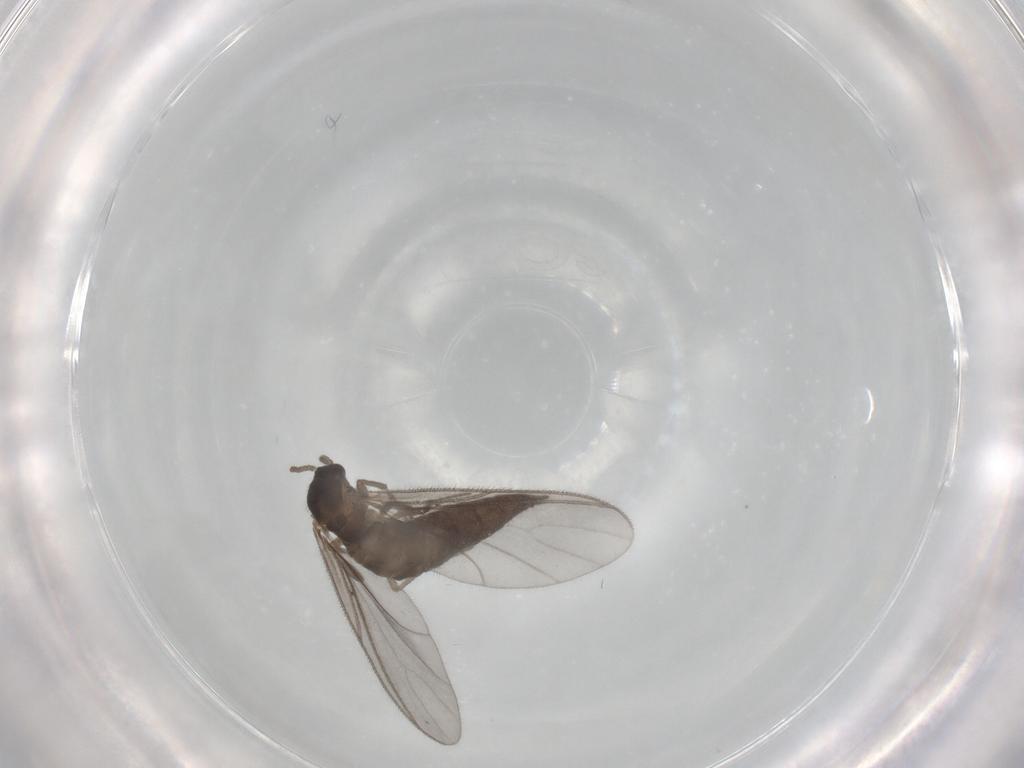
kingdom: Animalia
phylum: Arthropoda
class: Insecta
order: Diptera
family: Sciaridae
